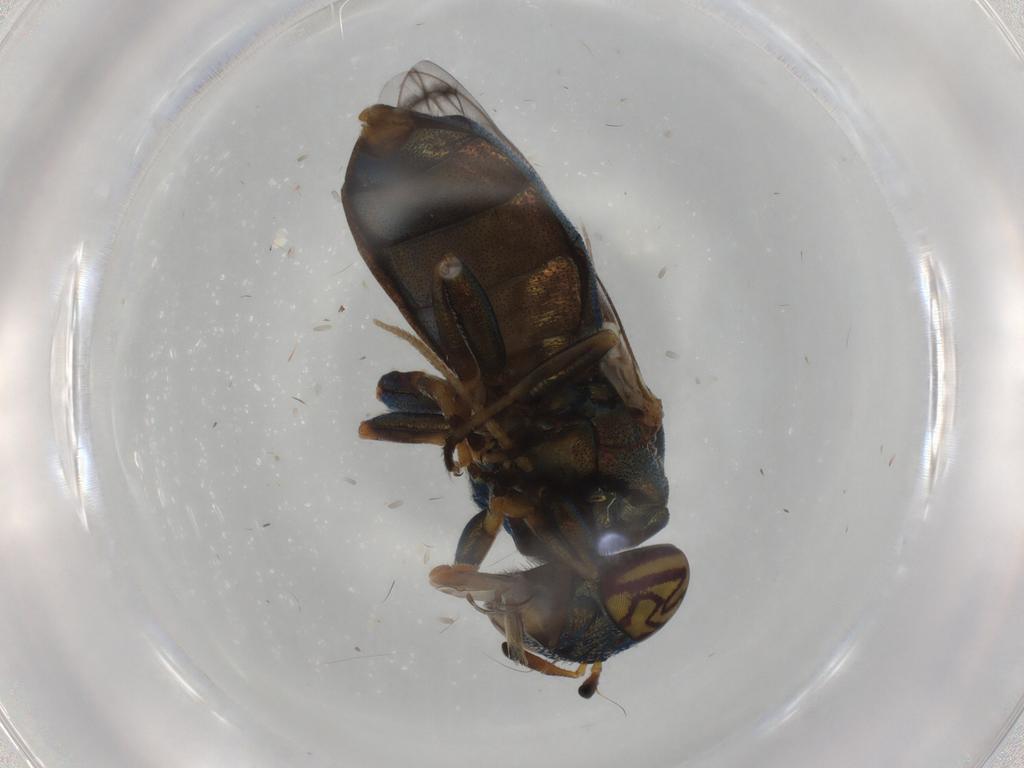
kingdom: Animalia
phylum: Arthropoda
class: Insecta
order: Diptera
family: Syrphidae
